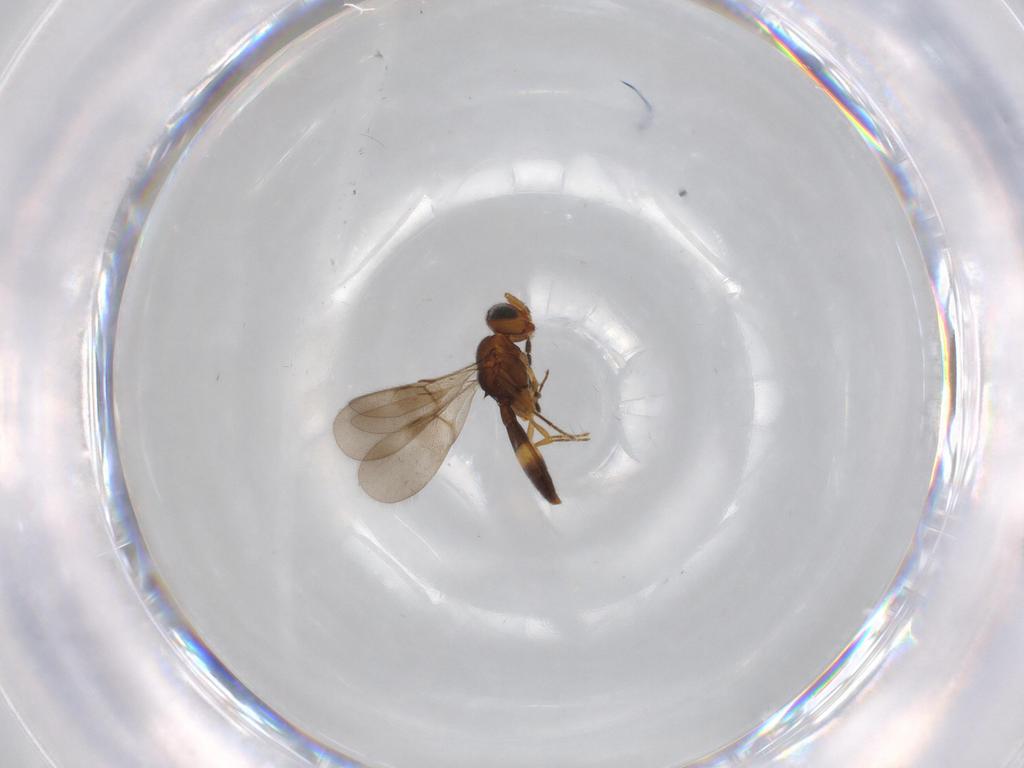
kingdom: Animalia
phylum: Arthropoda
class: Insecta
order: Hymenoptera
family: Scelionidae
